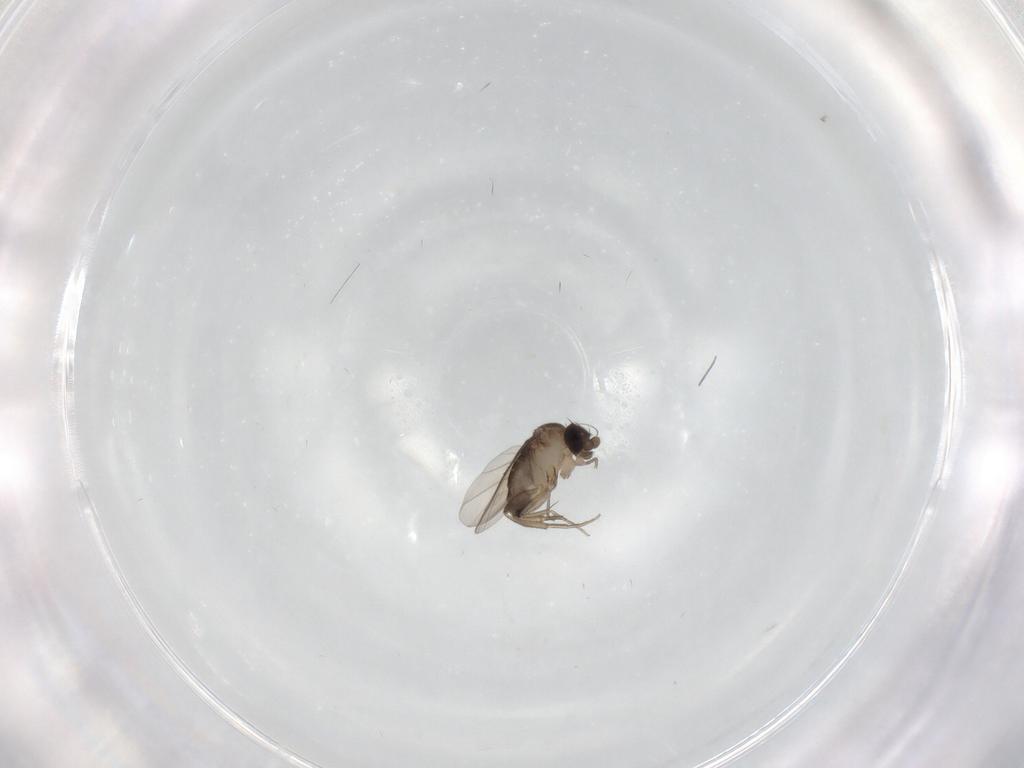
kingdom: Animalia
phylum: Arthropoda
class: Insecta
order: Diptera
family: Phoridae
